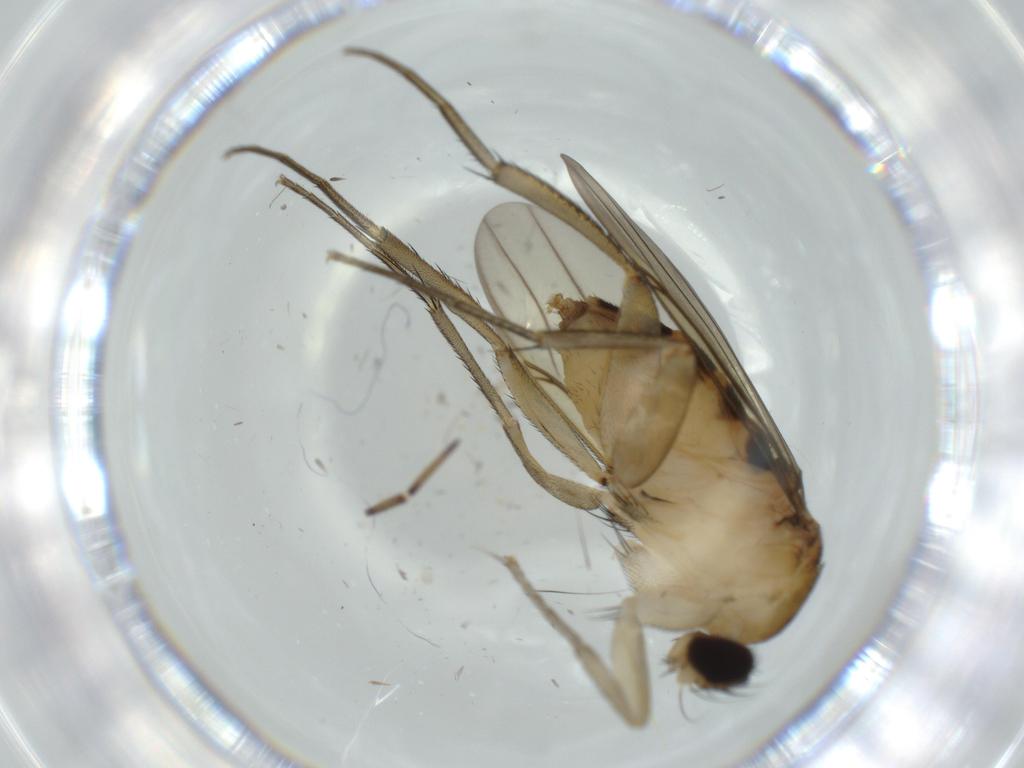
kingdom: Animalia
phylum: Arthropoda
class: Insecta
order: Diptera
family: Phoridae
